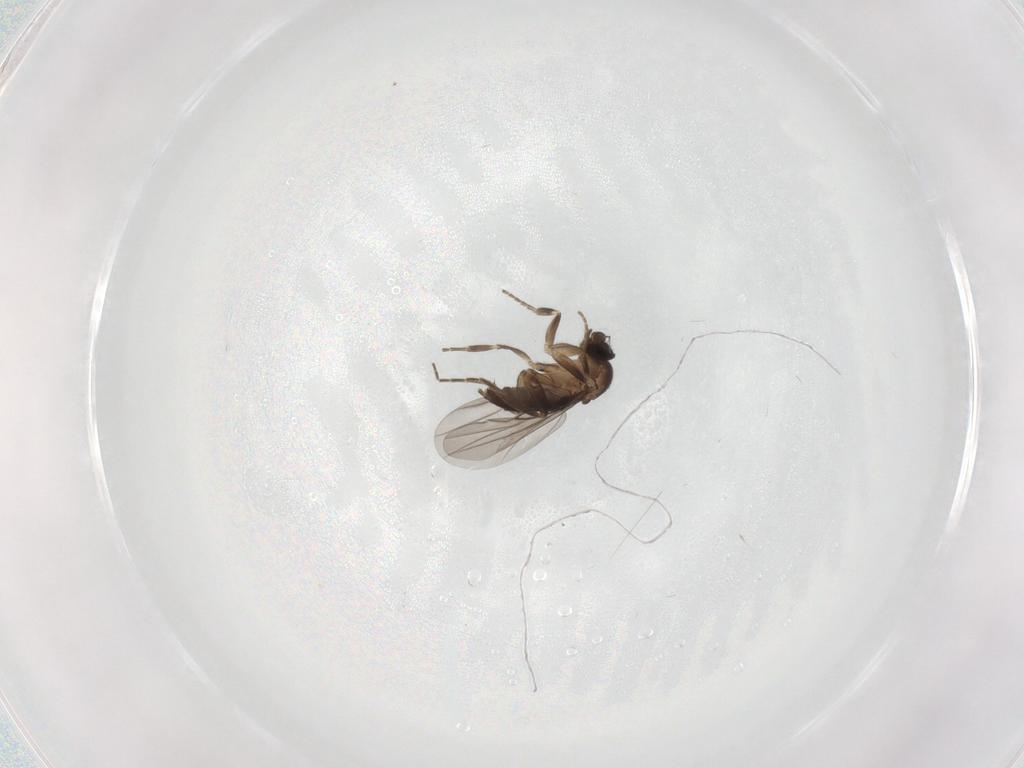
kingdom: Animalia
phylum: Arthropoda
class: Insecta
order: Diptera
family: Phoridae
